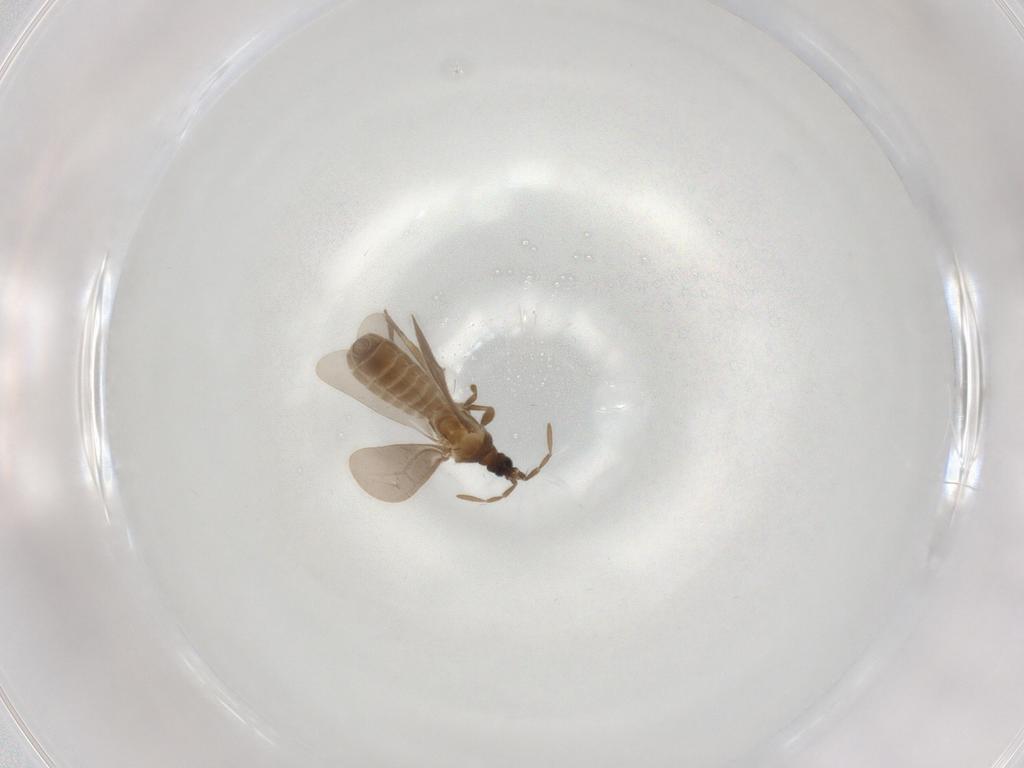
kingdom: Animalia
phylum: Arthropoda
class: Insecta
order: Hemiptera
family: Enicocephalidae
